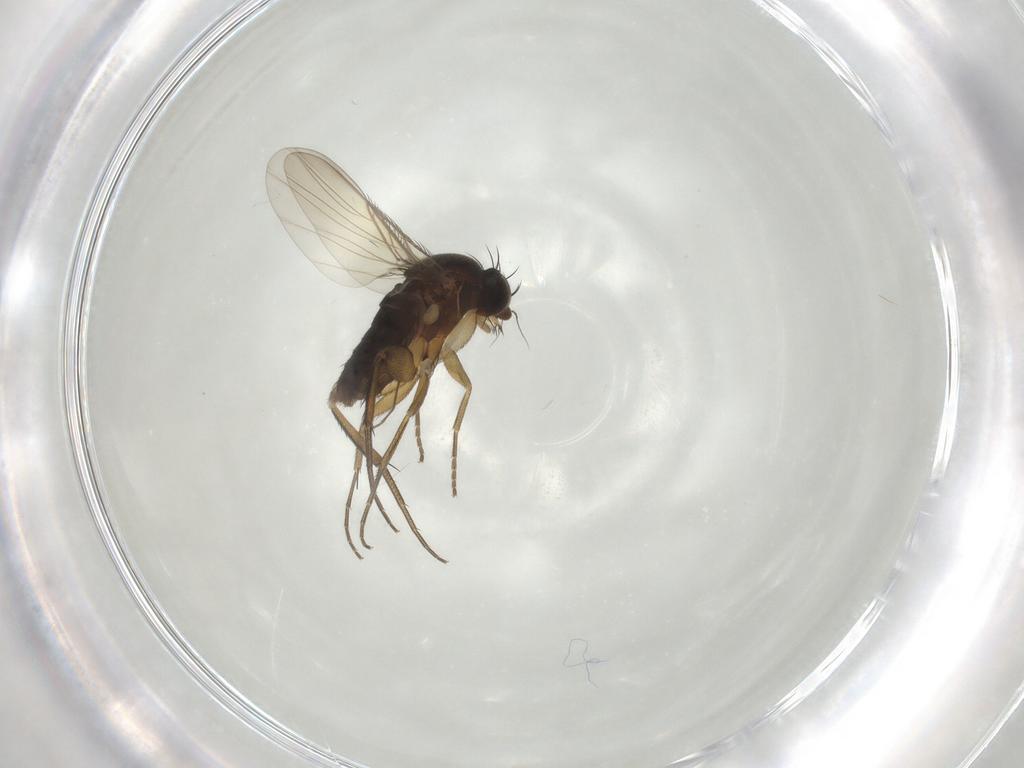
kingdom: Animalia
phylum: Arthropoda
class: Insecta
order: Diptera
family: Phoridae
